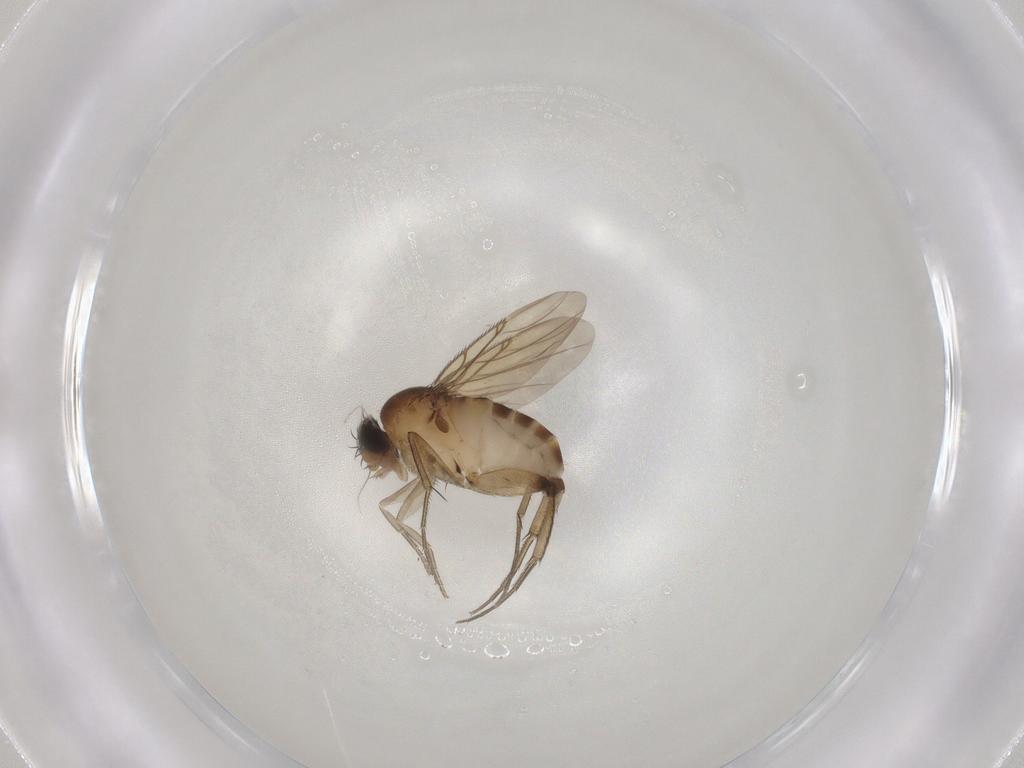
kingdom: Animalia
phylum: Arthropoda
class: Insecta
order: Diptera
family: Phoridae
